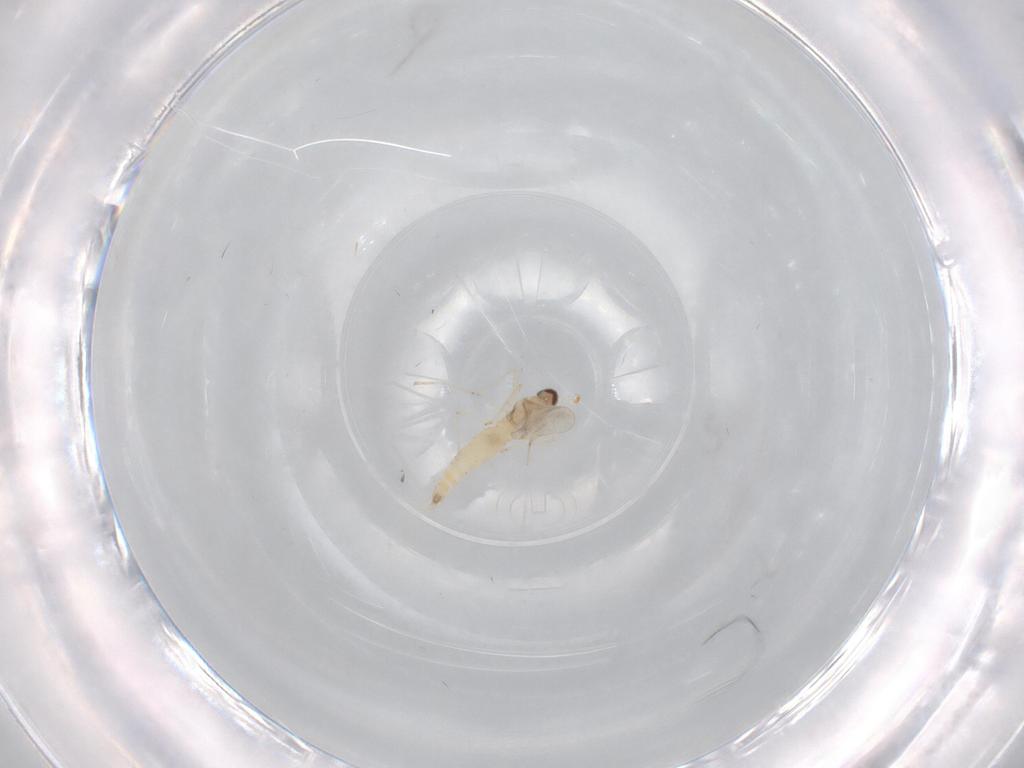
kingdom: Animalia
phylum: Arthropoda
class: Insecta
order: Diptera
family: Cecidomyiidae
